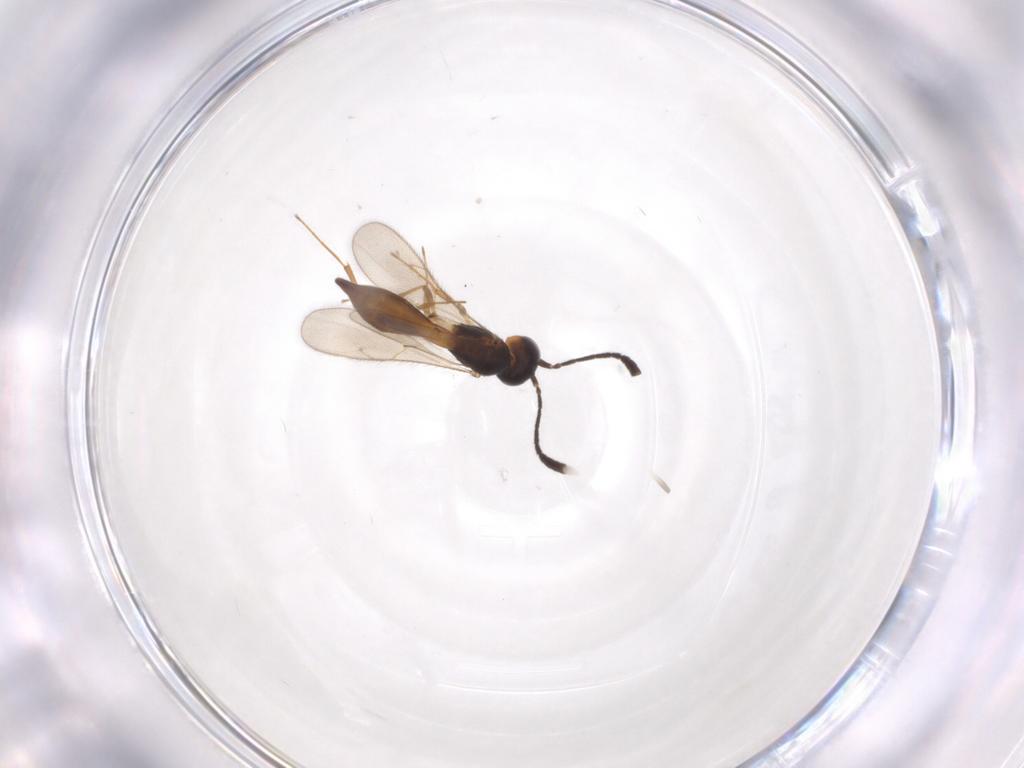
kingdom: Animalia
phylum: Arthropoda
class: Insecta
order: Hymenoptera
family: Scelionidae
